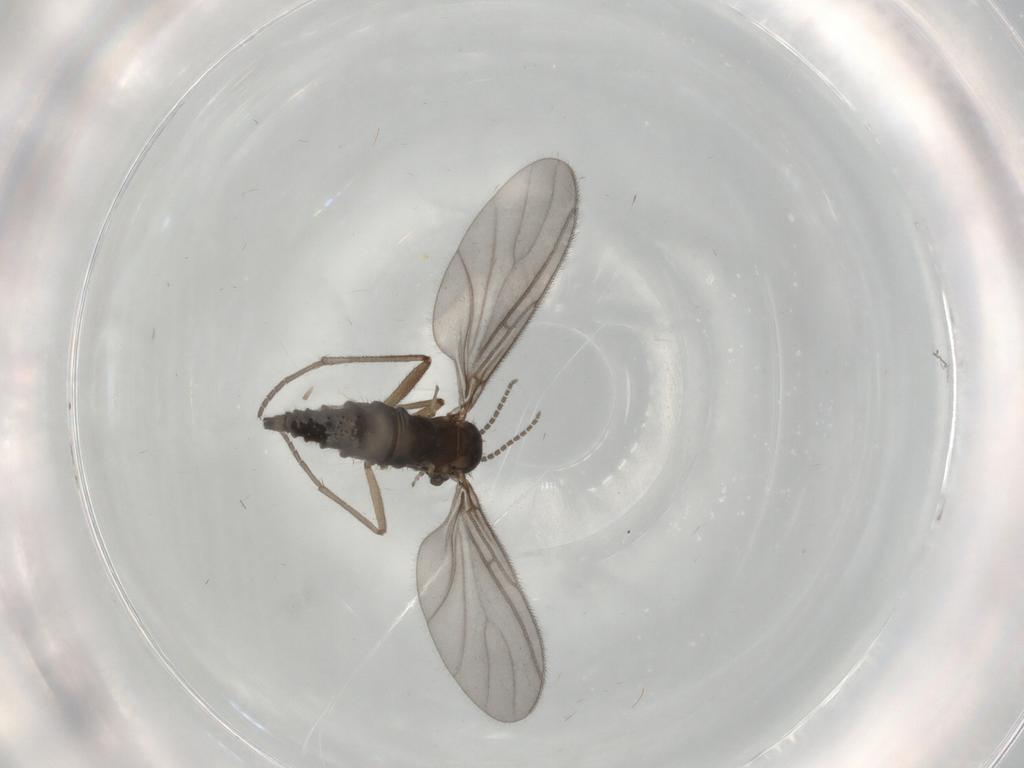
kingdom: Animalia
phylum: Arthropoda
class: Insecta
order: Diptera
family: Sciaridae
